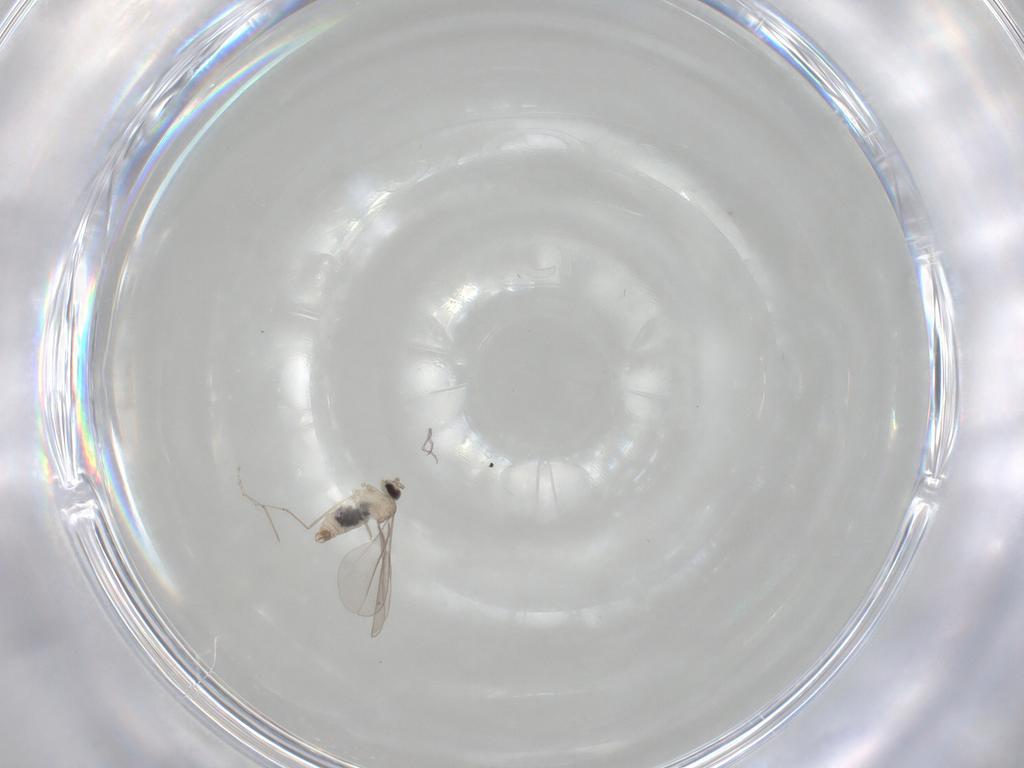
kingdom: Animalia
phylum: Arthropoda
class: Insecta
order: Diptera
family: Cecidomyiidae
